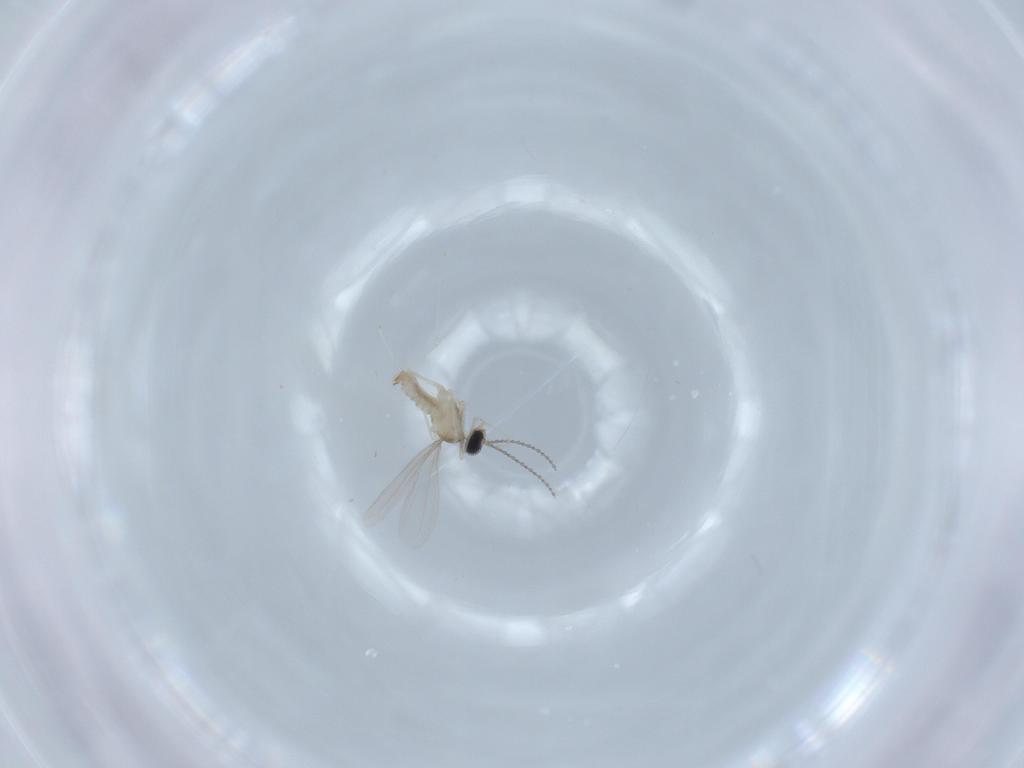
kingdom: Animalia
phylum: Arthropoda
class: Insecta
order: Diptera
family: Cecidomyiidae
